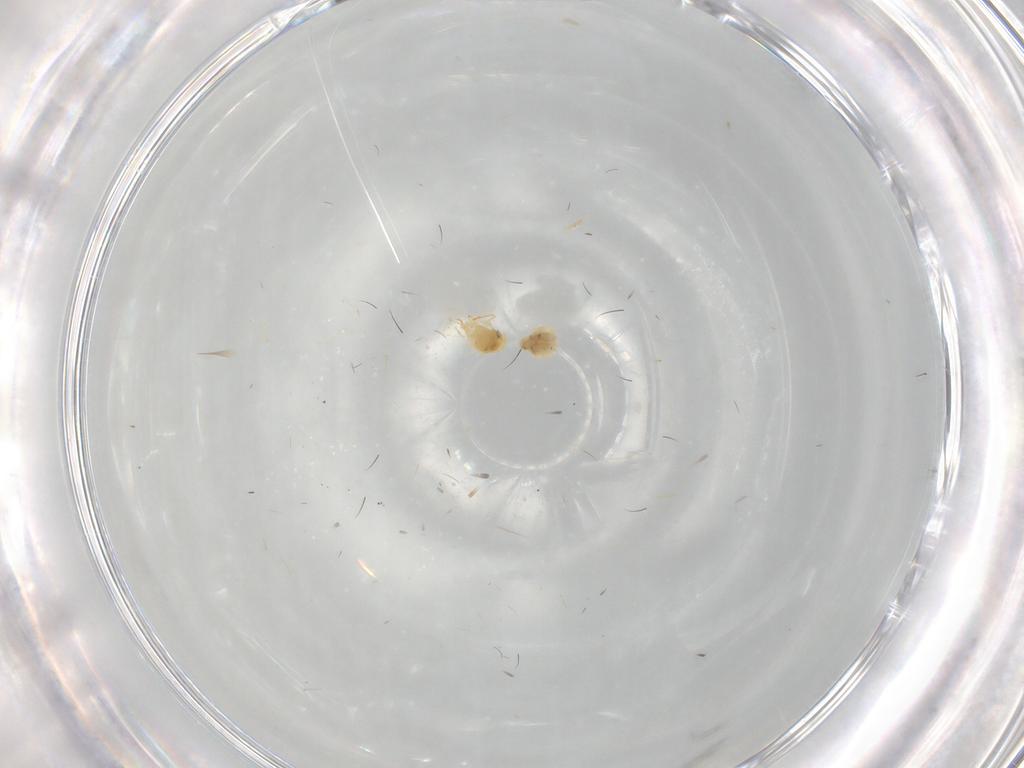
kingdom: Animalia
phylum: Arthropoda
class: Insecta
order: Hemiptera
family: Aleyrodidae
